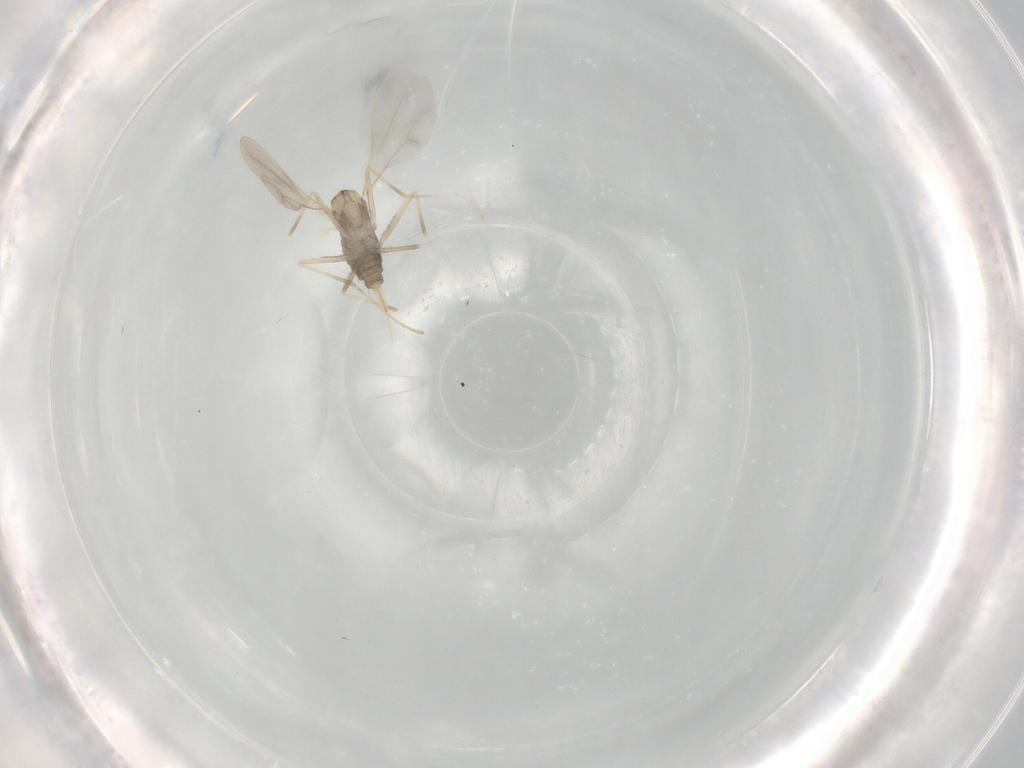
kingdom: Animalia
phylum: Arthropoda
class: Insecta
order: Diptera
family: Cecidomyiidae
